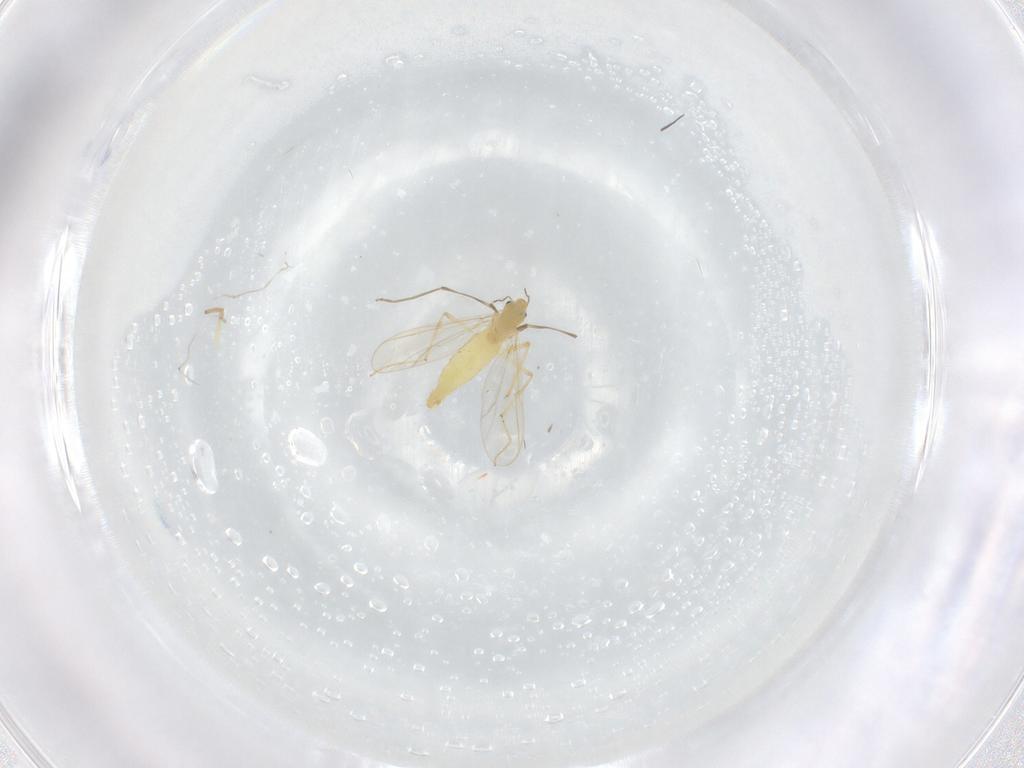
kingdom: Animalia
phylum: Arthropoda
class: Insecta
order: Diptera
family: Chironomidae
